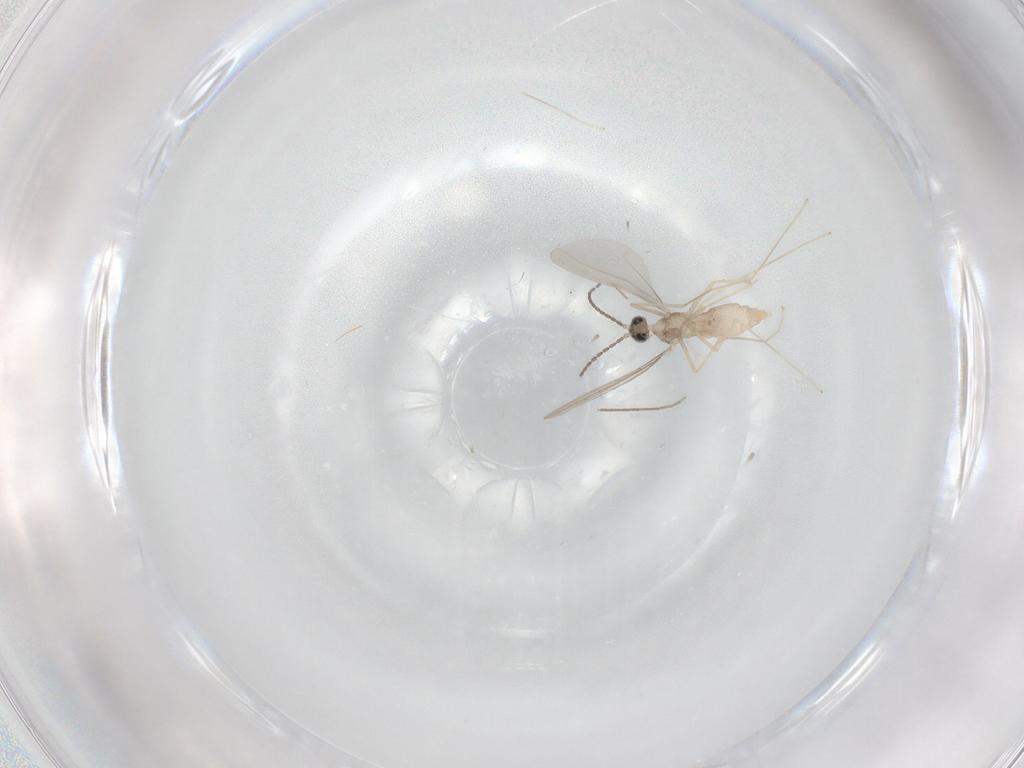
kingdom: Animalia
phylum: Arthropoda
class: Insecta
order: Diptera
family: Cecidomyiidae
